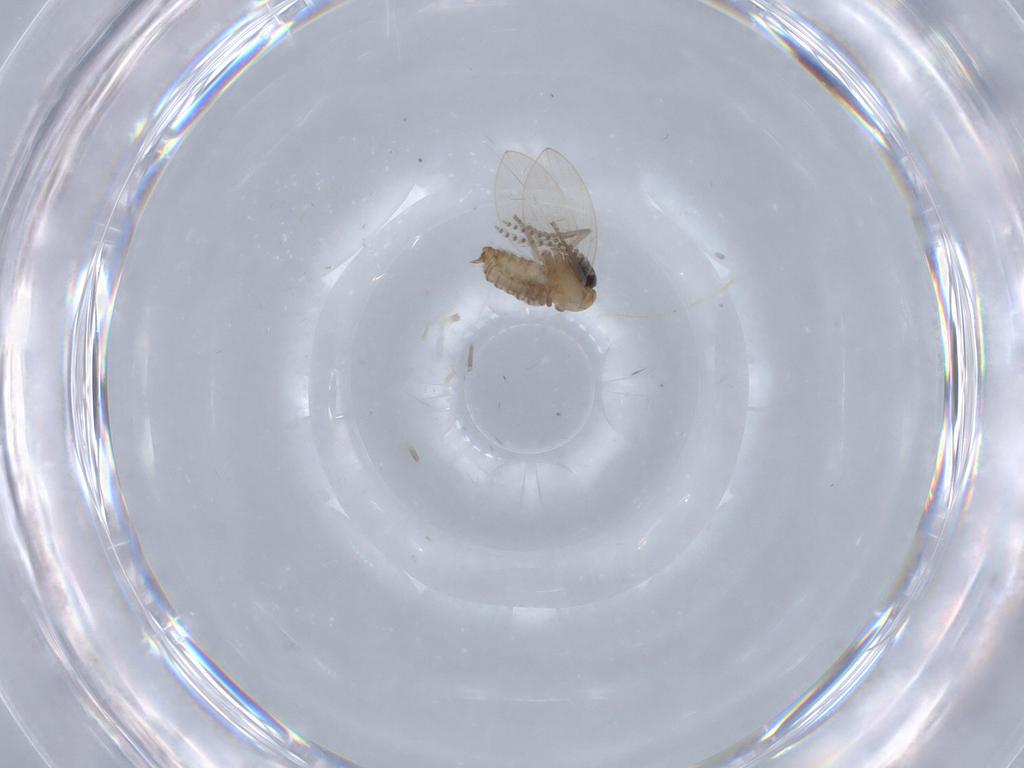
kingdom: Animalia
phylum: Arthropoda
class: Insecta
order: Diptera
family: Psychodidae
